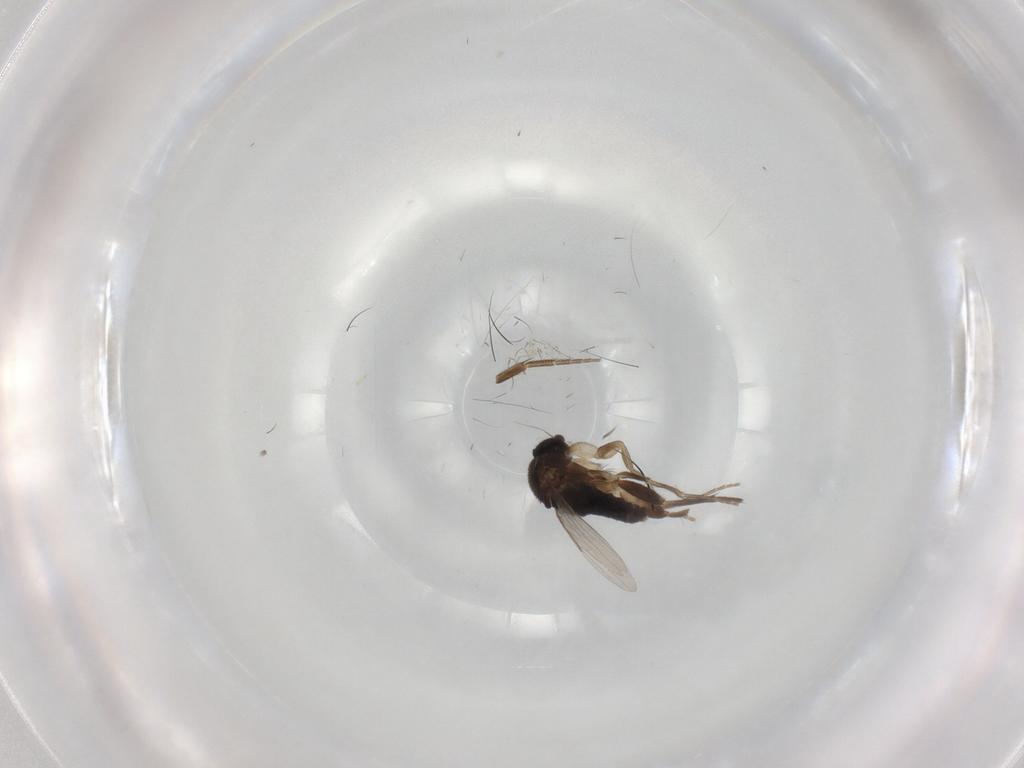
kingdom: Animalia
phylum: Arthropoda
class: Insecta
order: Diptera
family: Phoridae
